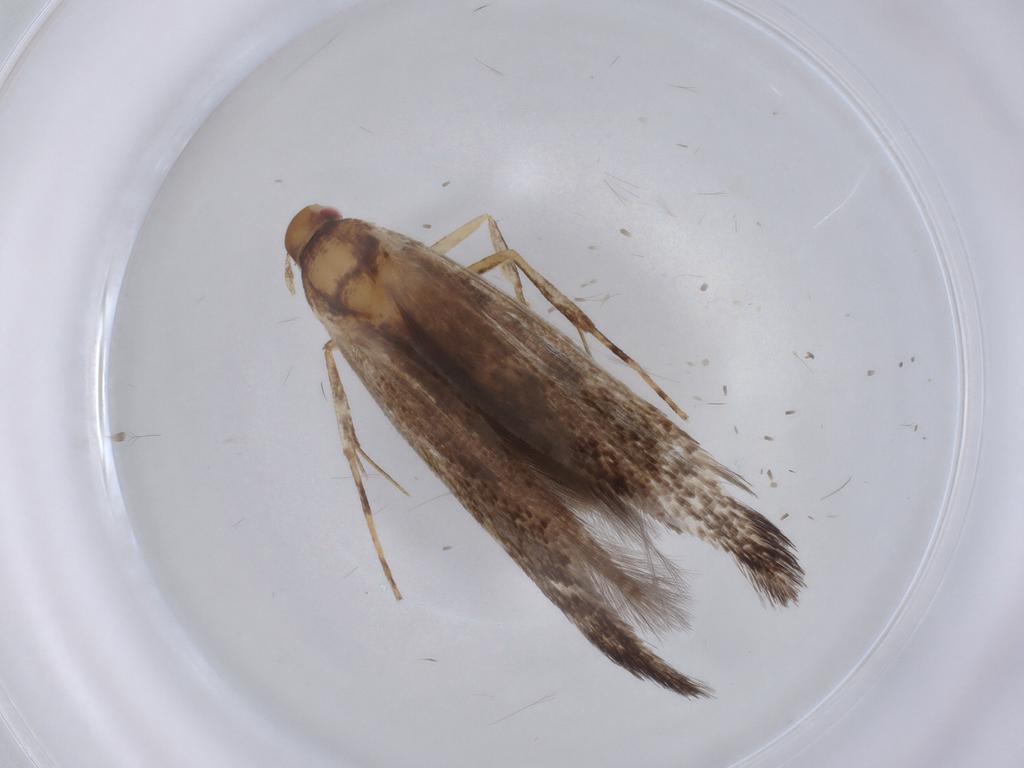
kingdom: Animalia
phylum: Arthropoda
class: Insecta
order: Lepidoptera
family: Cosmopterigidae
